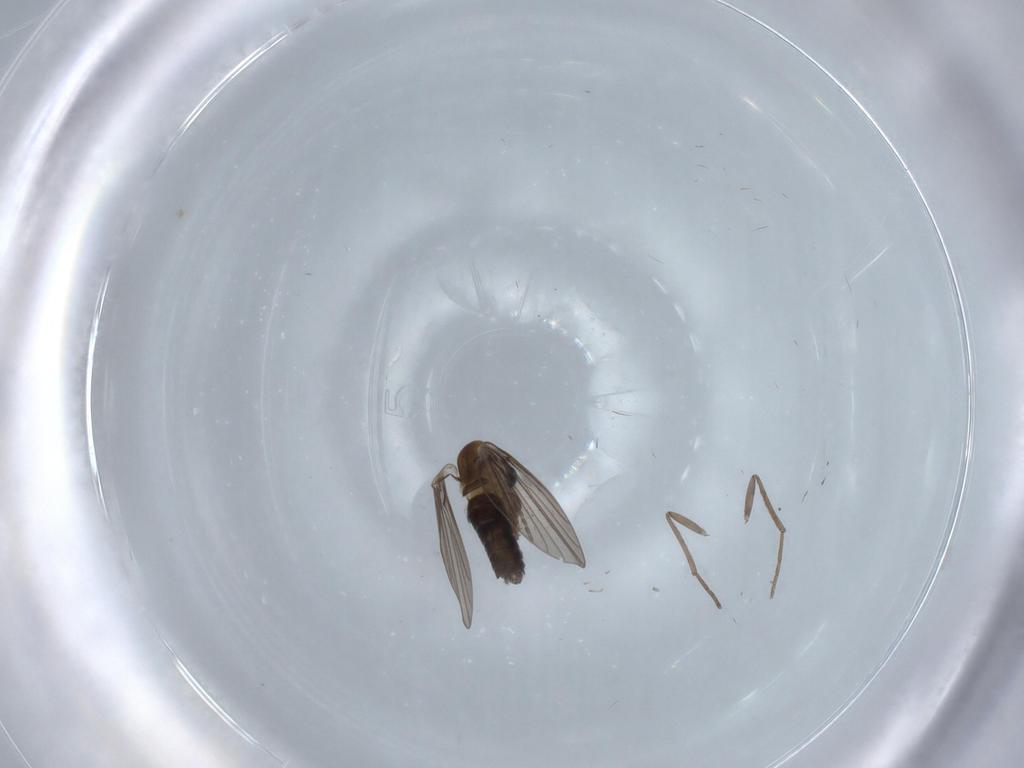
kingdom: Animalia
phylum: Arthropoda
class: Insecta
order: Diptera
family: Psychodidae
